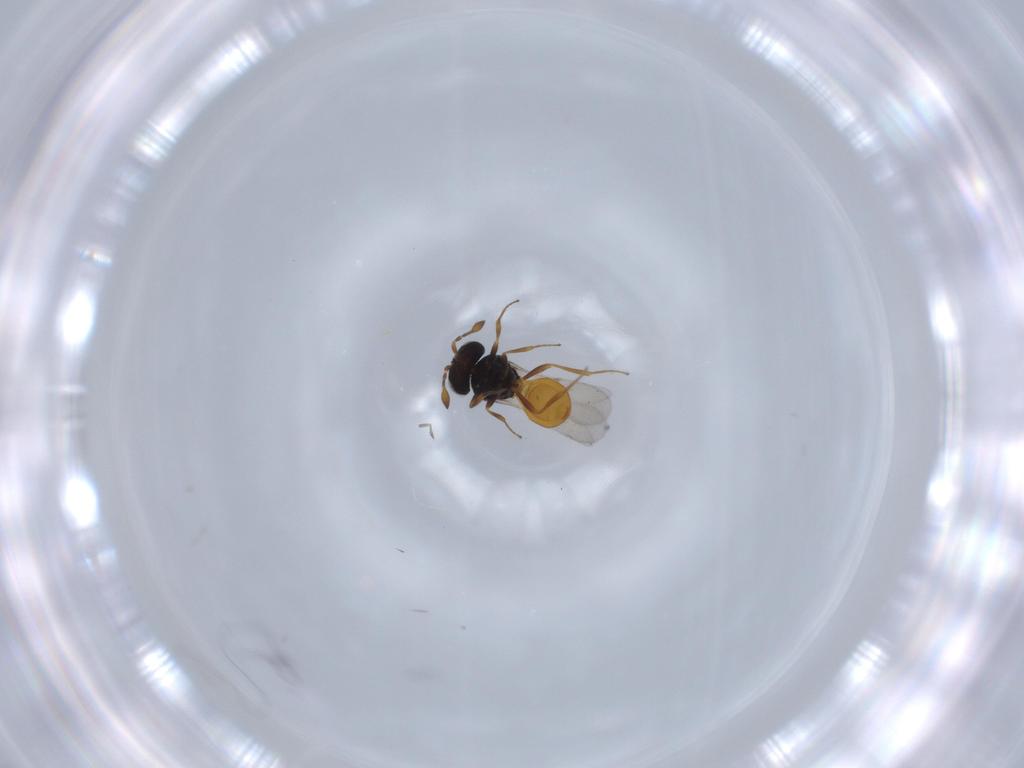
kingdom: Animalia
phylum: Arthropoda
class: Insecta
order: Hymenoptera
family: Scelionidae
